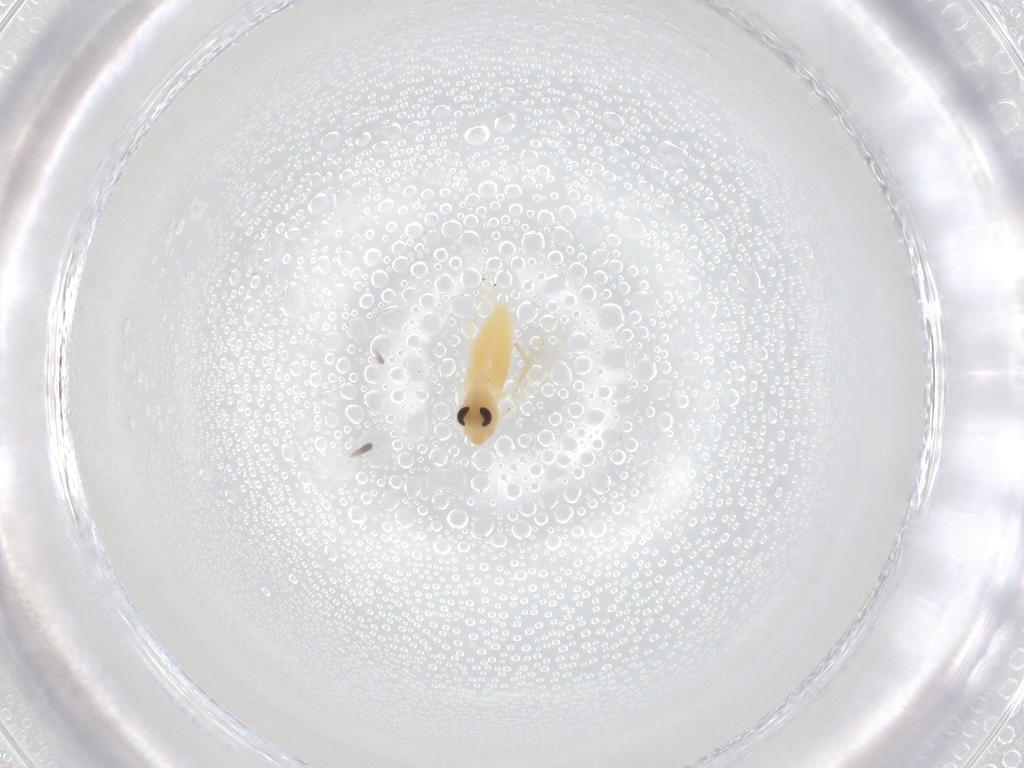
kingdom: Animalia
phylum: Arthropoda
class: Insecta
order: Diptera
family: Chironomidae
